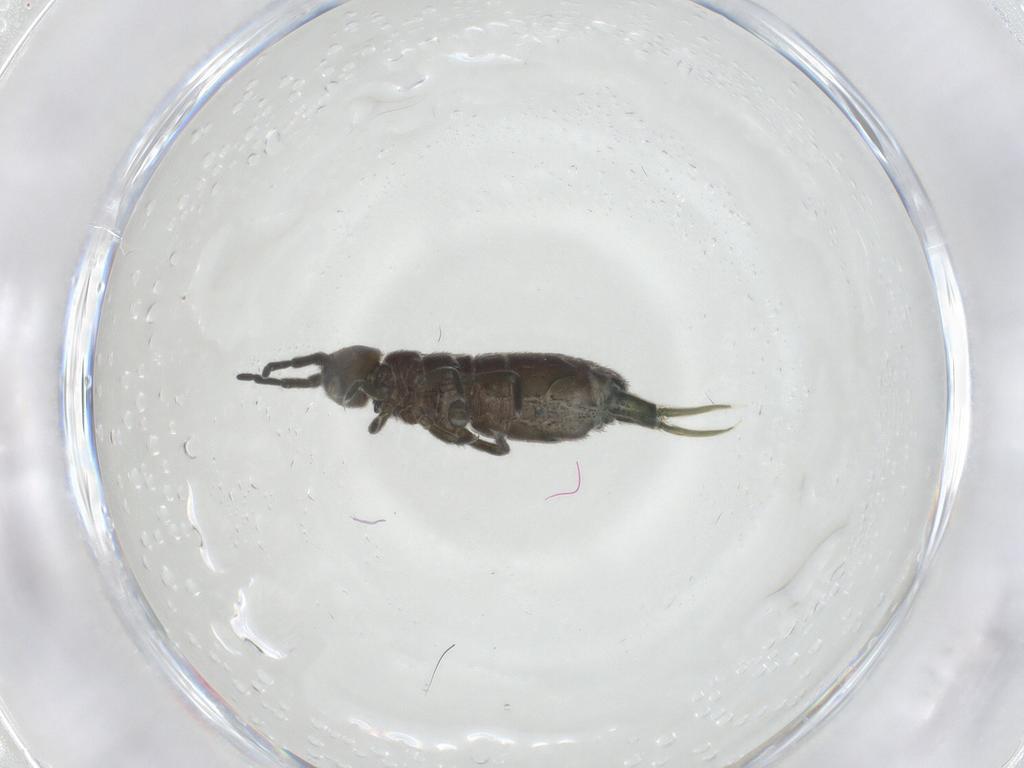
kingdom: Animalia
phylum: Arthropoda
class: Collembola
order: Entomobryomorpha
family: Isotomidae
